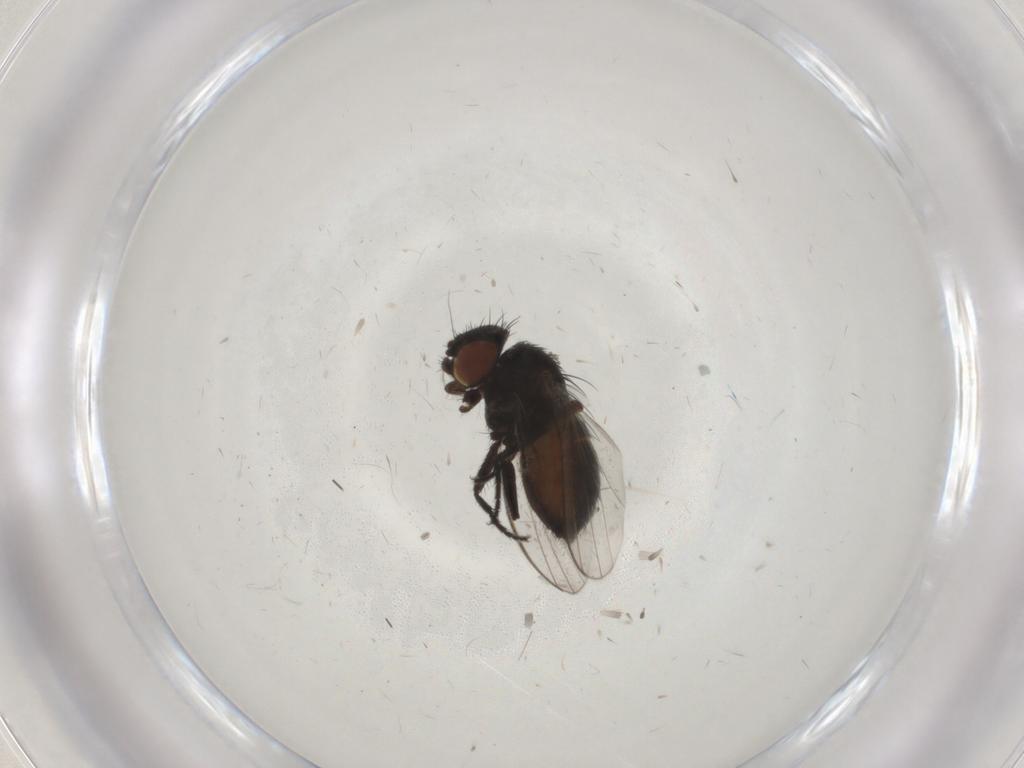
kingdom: Animalia
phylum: Arthropoda
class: Insecta
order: Diptera
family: Milichiidae
